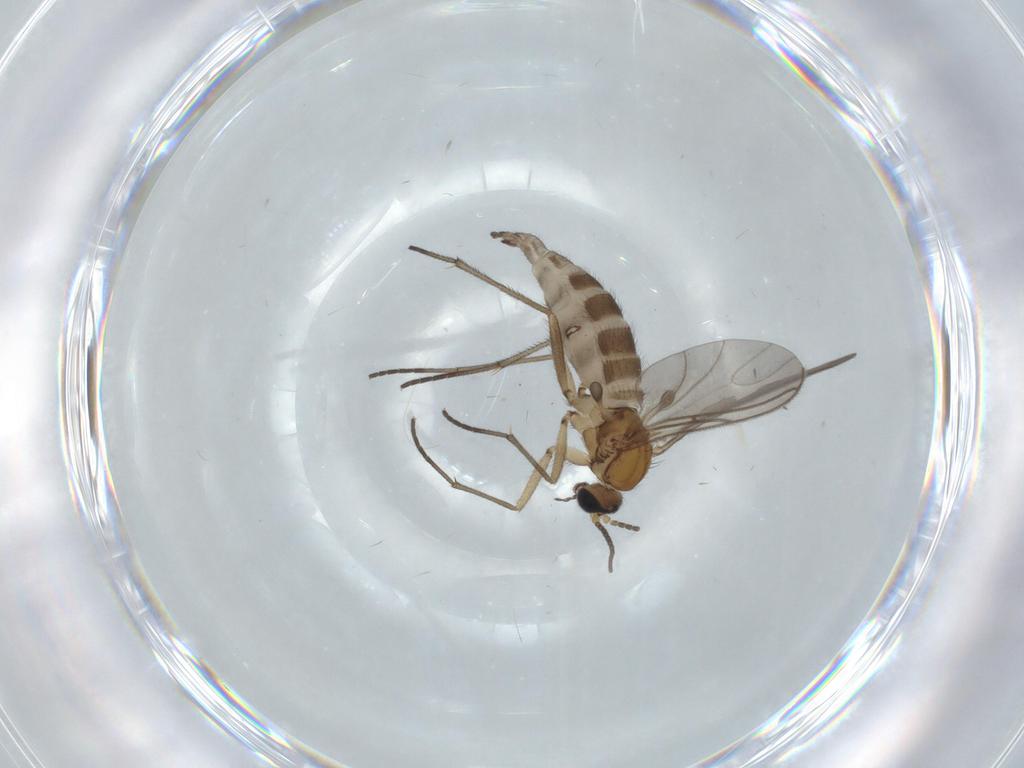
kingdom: Animalia
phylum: Arthropoda
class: Insecta
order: Diptera
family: Sciaridae
